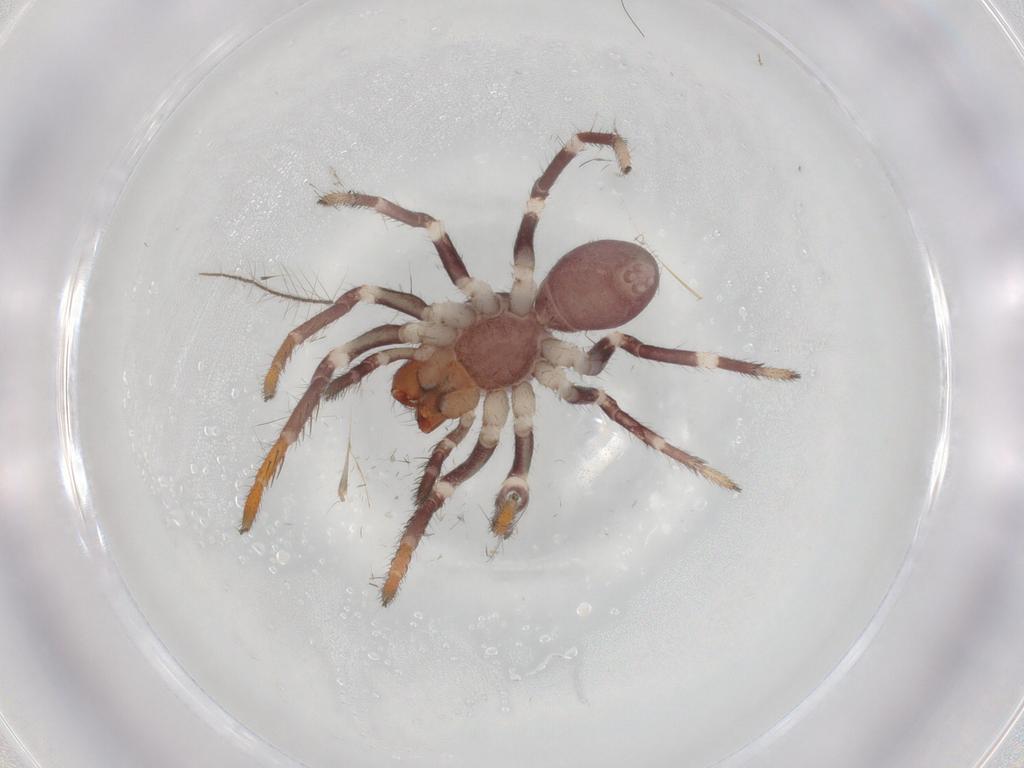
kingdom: Animalia
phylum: Arthropoda
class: Arachnida
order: Araneae
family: Corinnidae
